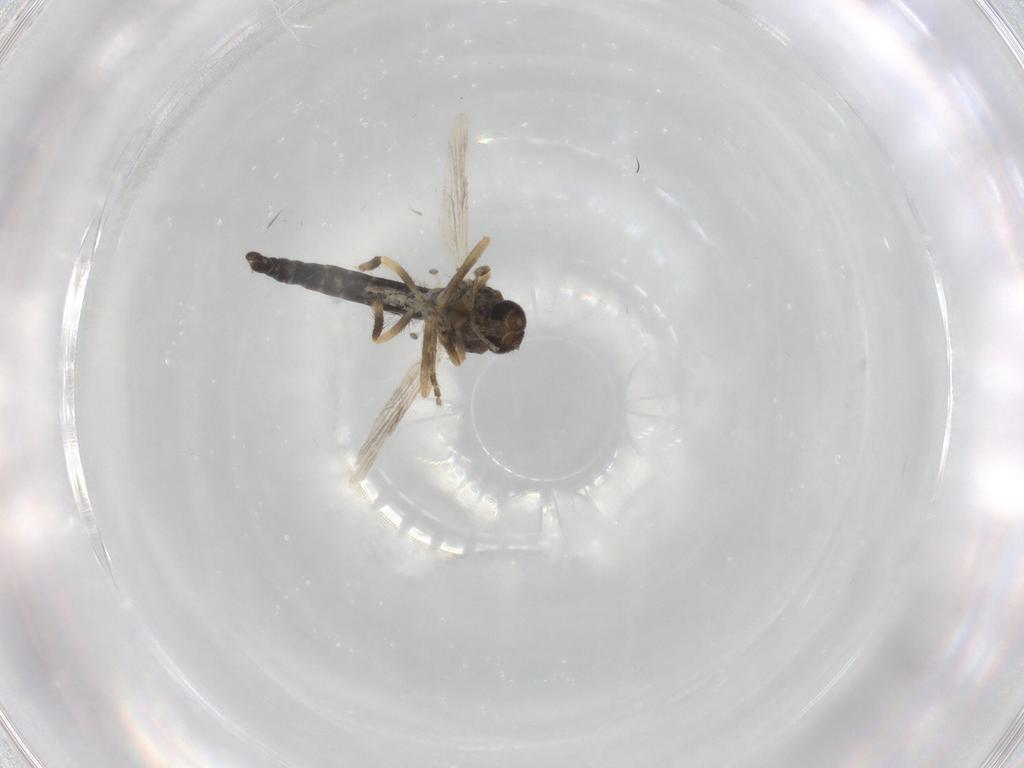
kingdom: Animalia
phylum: Arthropoda
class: Insecta
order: Diptera
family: Ceratopogonidae
